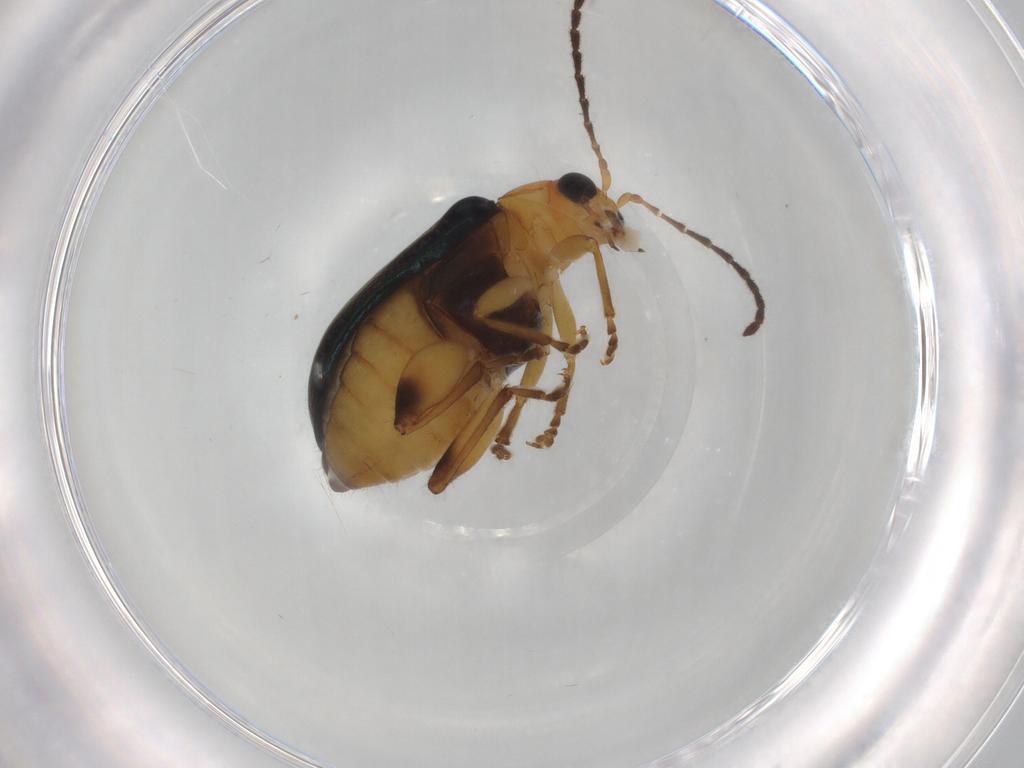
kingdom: Animalia
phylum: Arthropoda
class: Insecta
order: Coleoptera
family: Chrysomelidae
